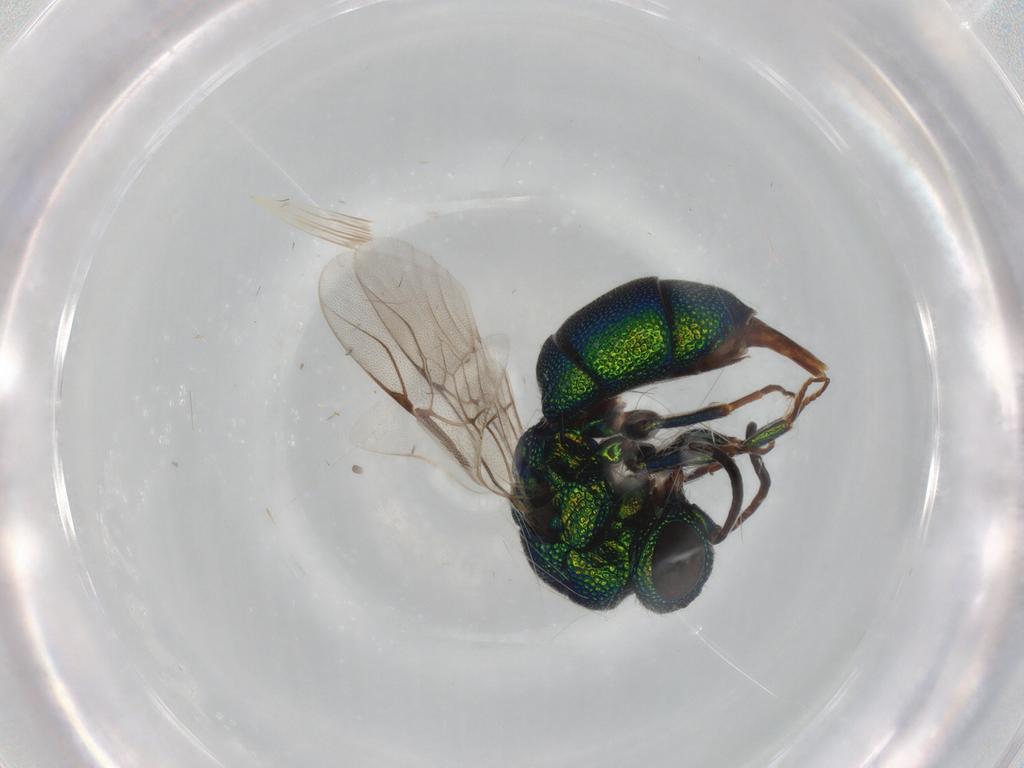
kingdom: Animalia
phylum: Arthropoda
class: Insecta
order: Hymenoptera
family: Chrysididae
